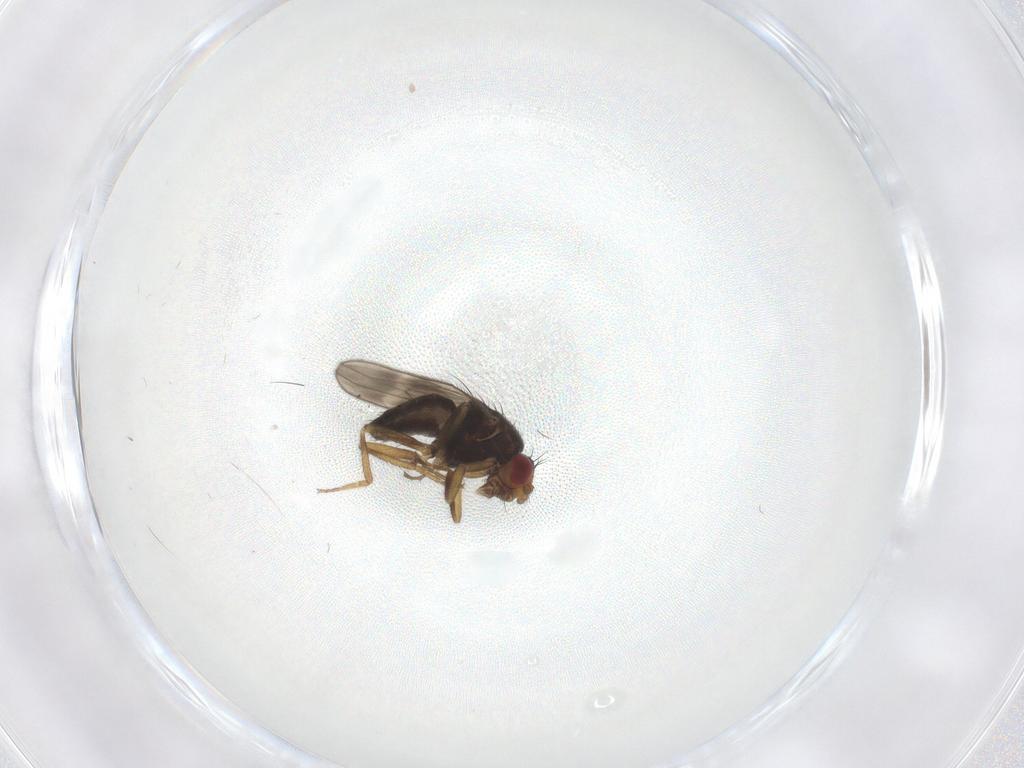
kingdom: Animalia
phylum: Arthropoda
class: Insecta
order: Diptera
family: Sphaeroceridae
